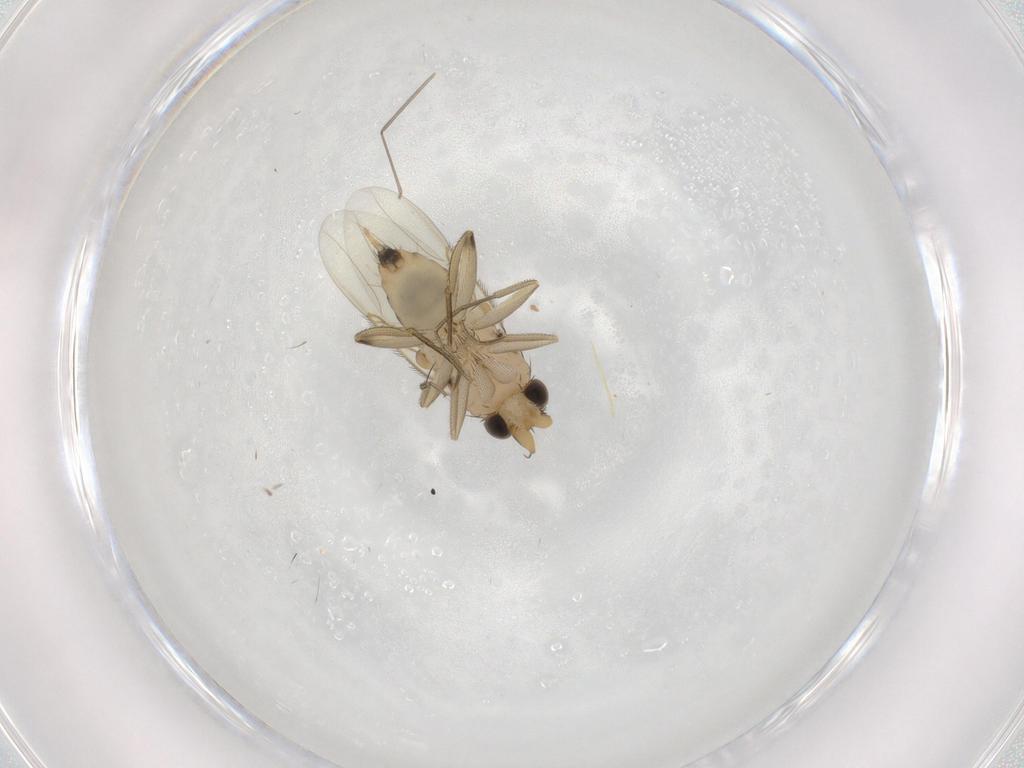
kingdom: Animalia
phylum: Arthropoda
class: Insecta
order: Diptera
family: Phoridae
